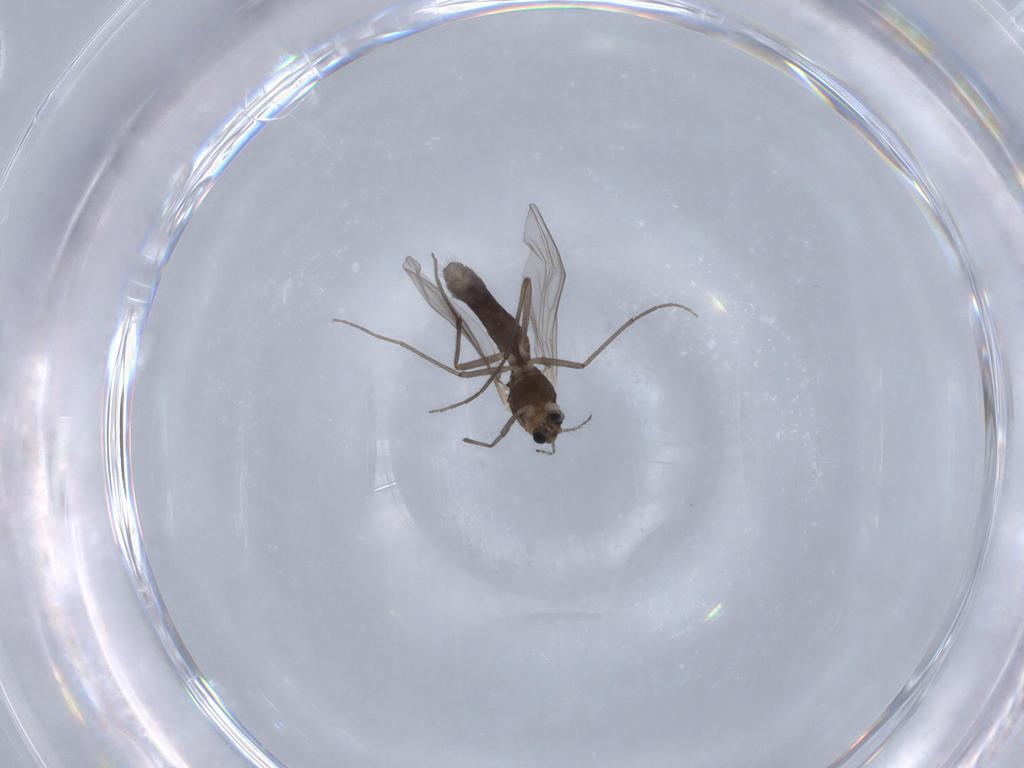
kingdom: Animalia
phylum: Arthropoda
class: Insecta
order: Diptera
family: Chironomidae
